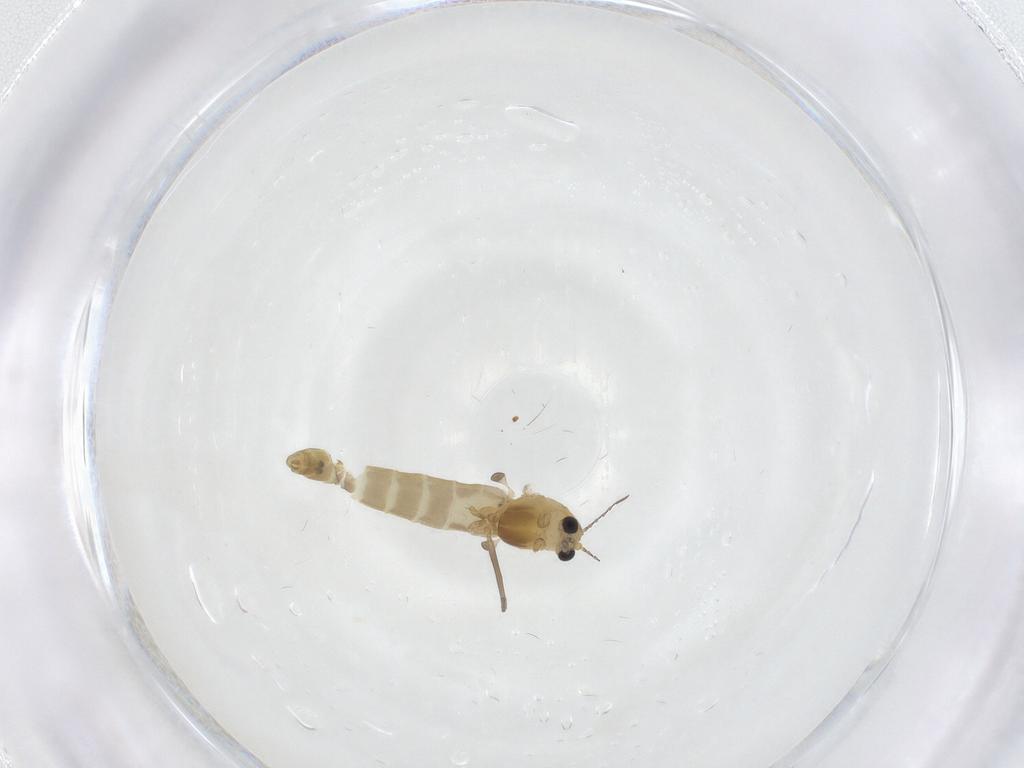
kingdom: Animalia
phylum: Arthropoda
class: Insecta
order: Diptera
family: Chironomidae
